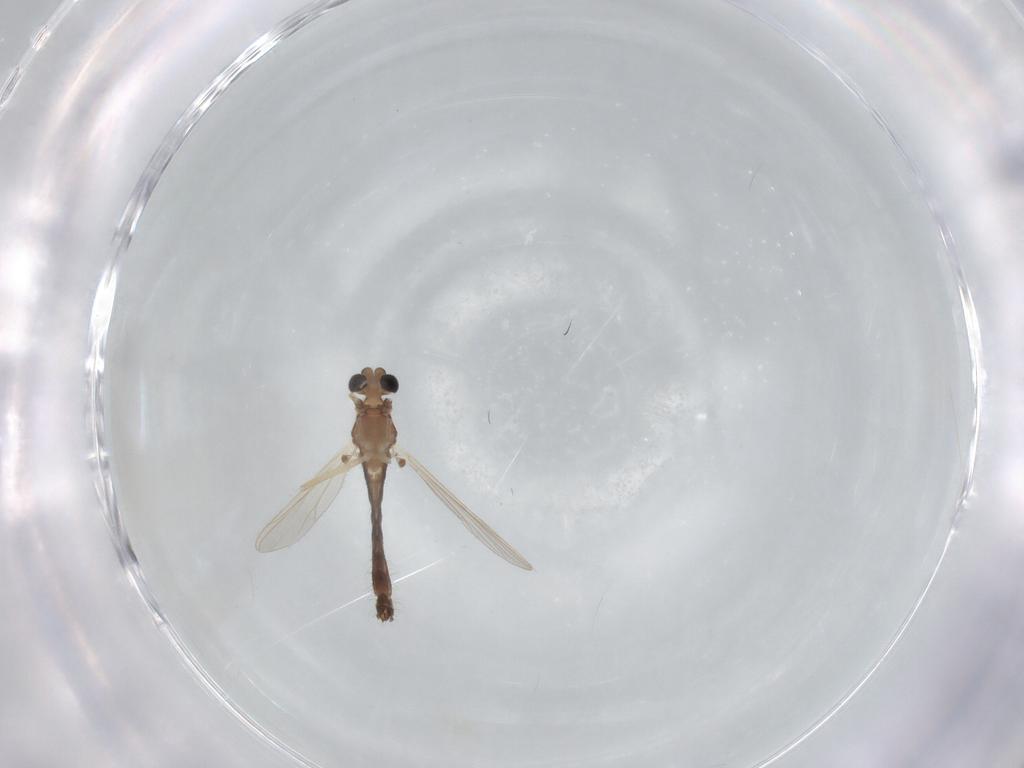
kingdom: Animalia
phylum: Arthropoda
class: Insecta
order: Diptera
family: Chironomidae
